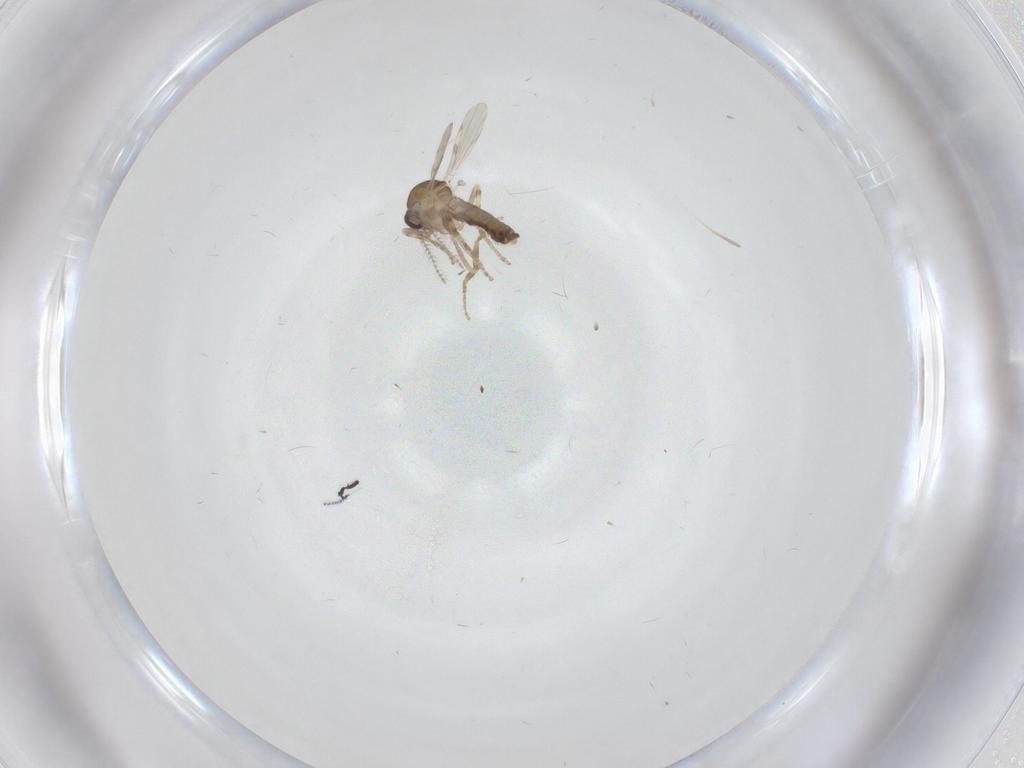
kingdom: Animalia
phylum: Arthropoda
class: Insecta
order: Diptera
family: Ceratopogonidae
